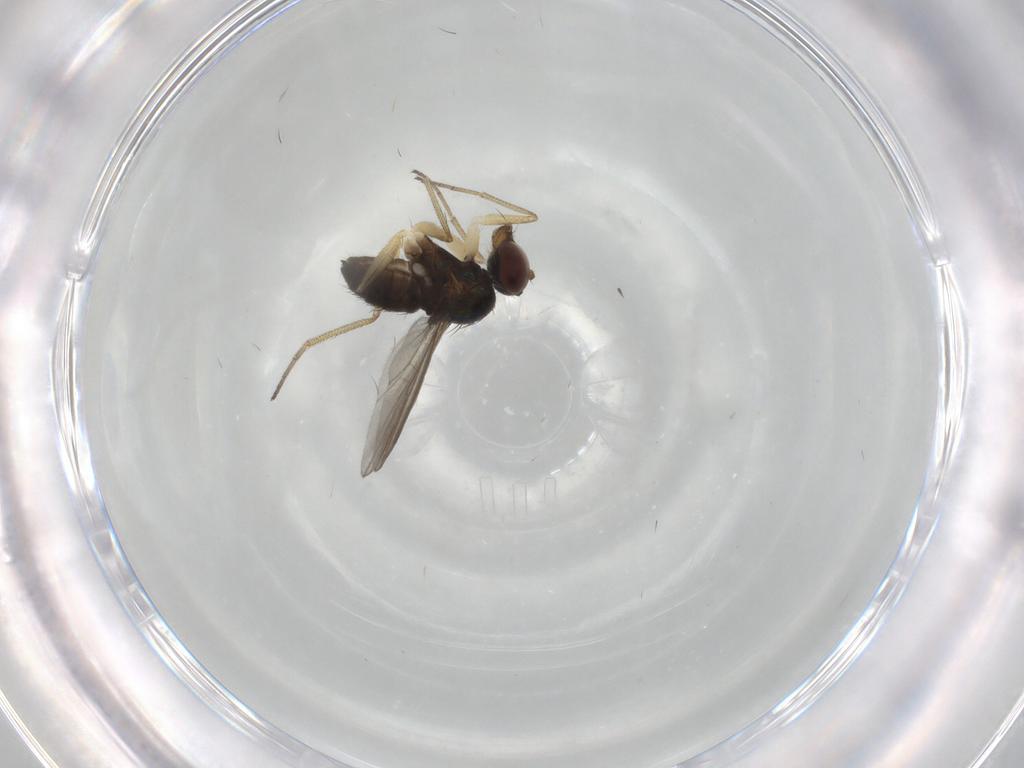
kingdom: Animalia
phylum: Arthropoda
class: Insecta
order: Diptera
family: Dolichopodidae
